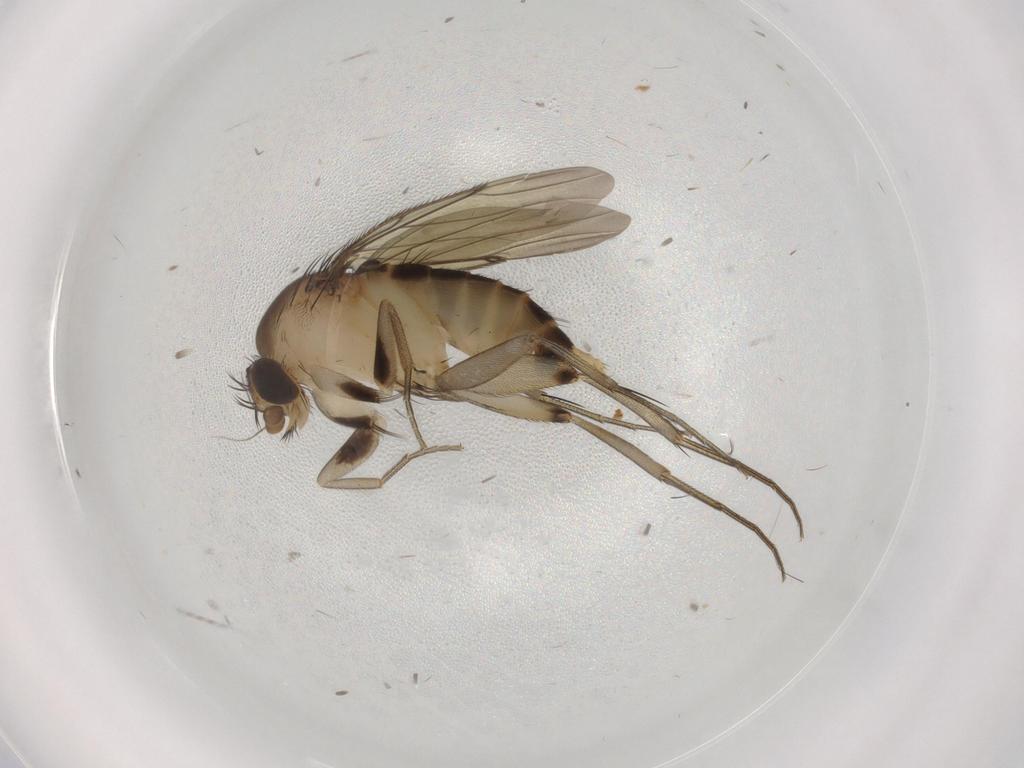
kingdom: Animalia
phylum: Arthropoda
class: Insecta
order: Diptera
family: Phoridae
